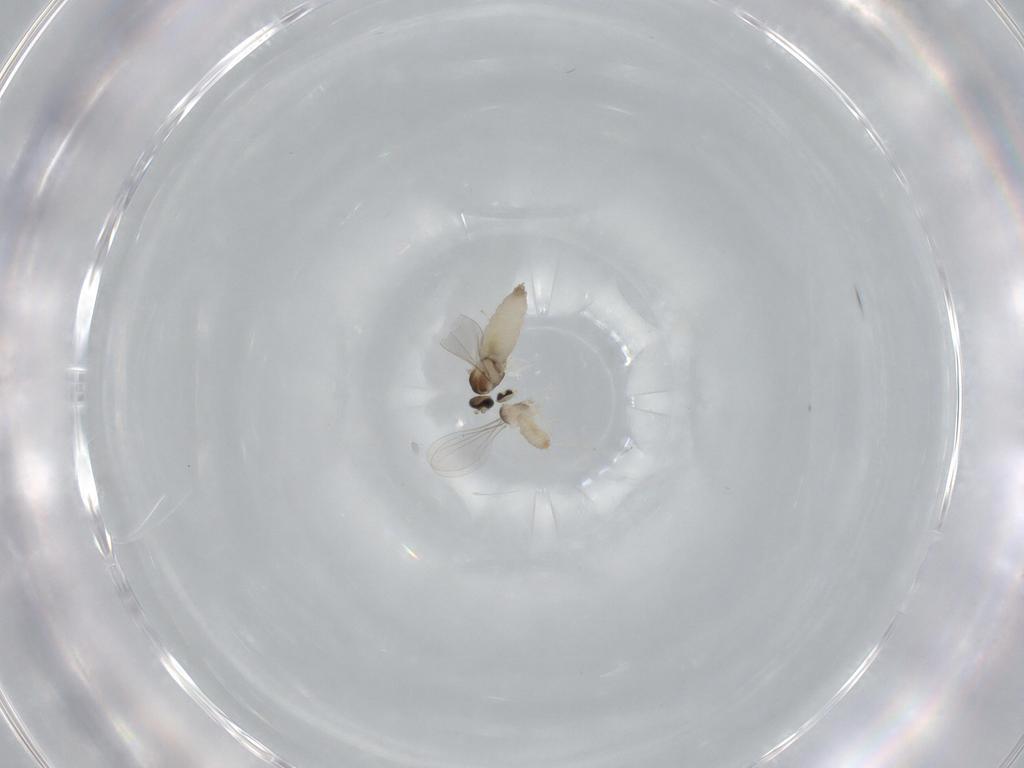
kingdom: Animalia
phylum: Arthropoda
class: Insecta
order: Diptera
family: Cecidomyiidae
